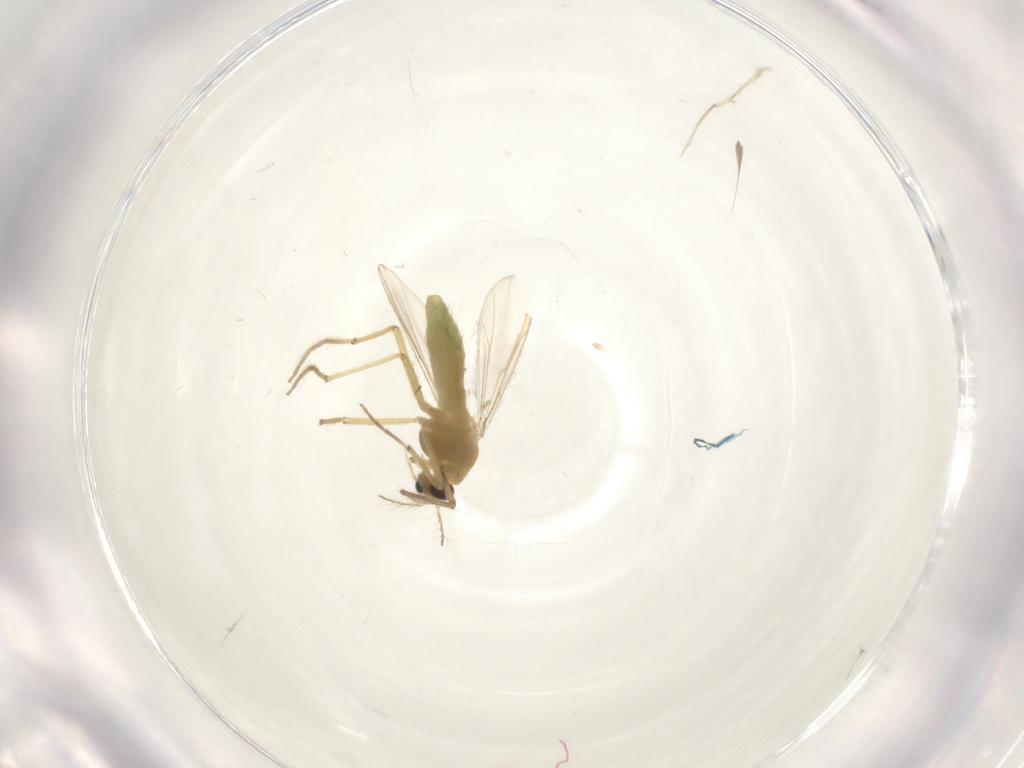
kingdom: Animalia
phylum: Arthropoda
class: Insecta
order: Diptera
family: Chironomidae
